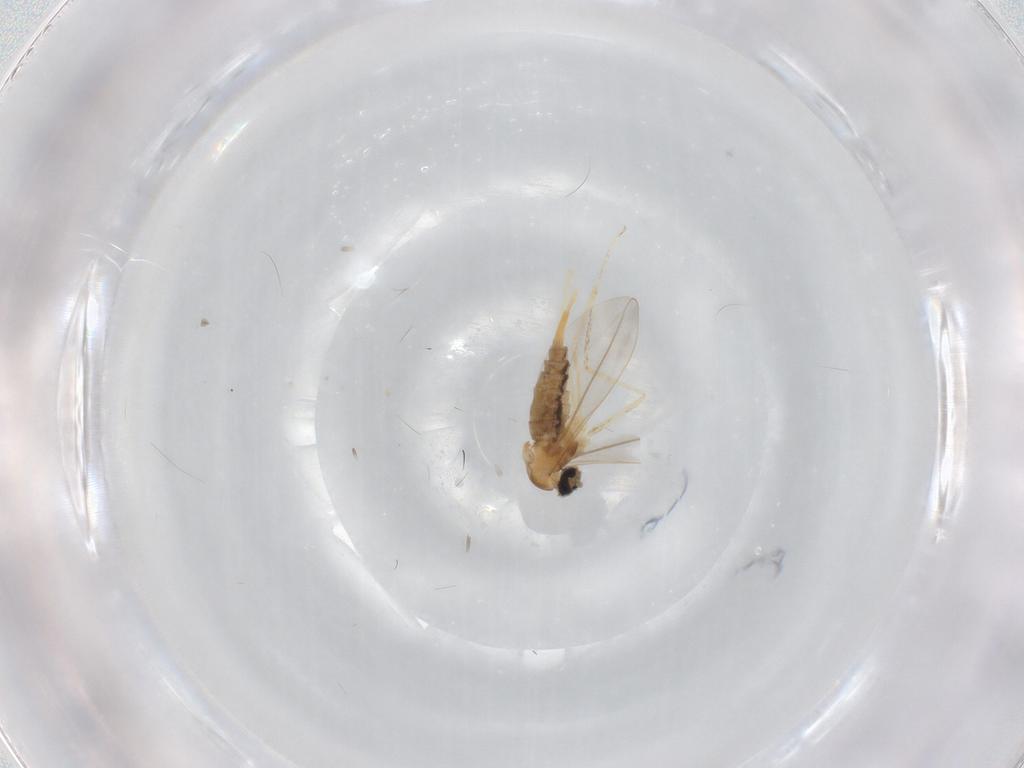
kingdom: Animalia
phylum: Arthropoda
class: Insecta
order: Diptera
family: Cecidomyiidae
